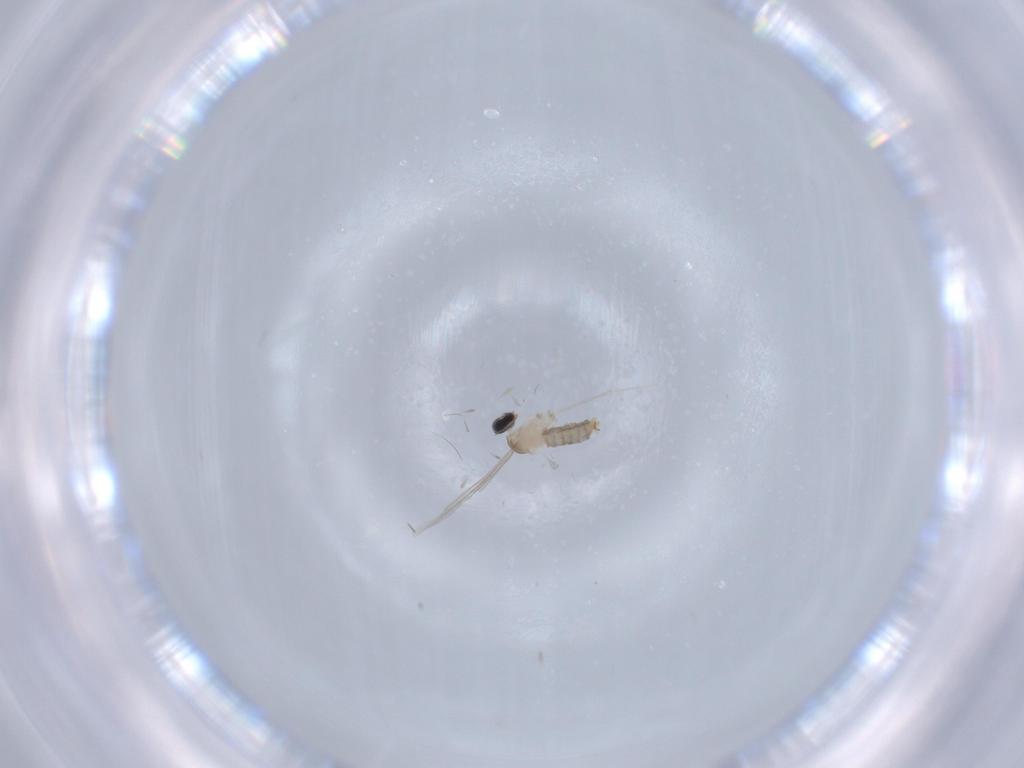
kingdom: Animalia
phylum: Arthropoda
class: Insecta
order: Diptera
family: Cecidomyiidae
